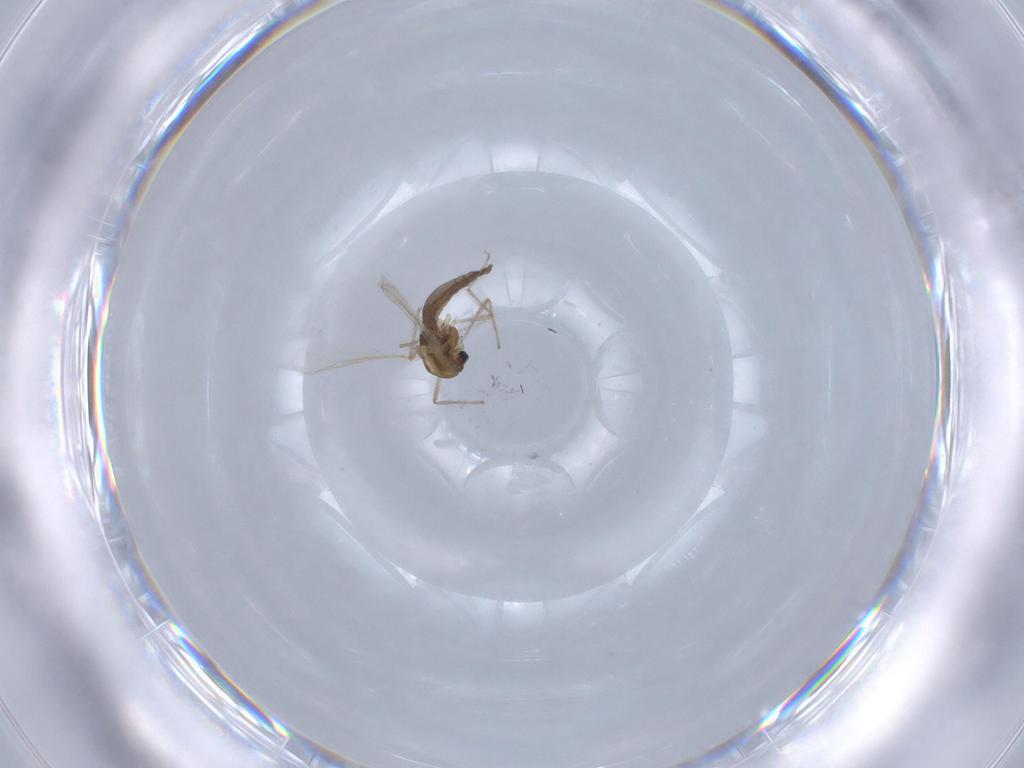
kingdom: Animalia
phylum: Arthropoda
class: Insecta
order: Diptera
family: Chironomidae
